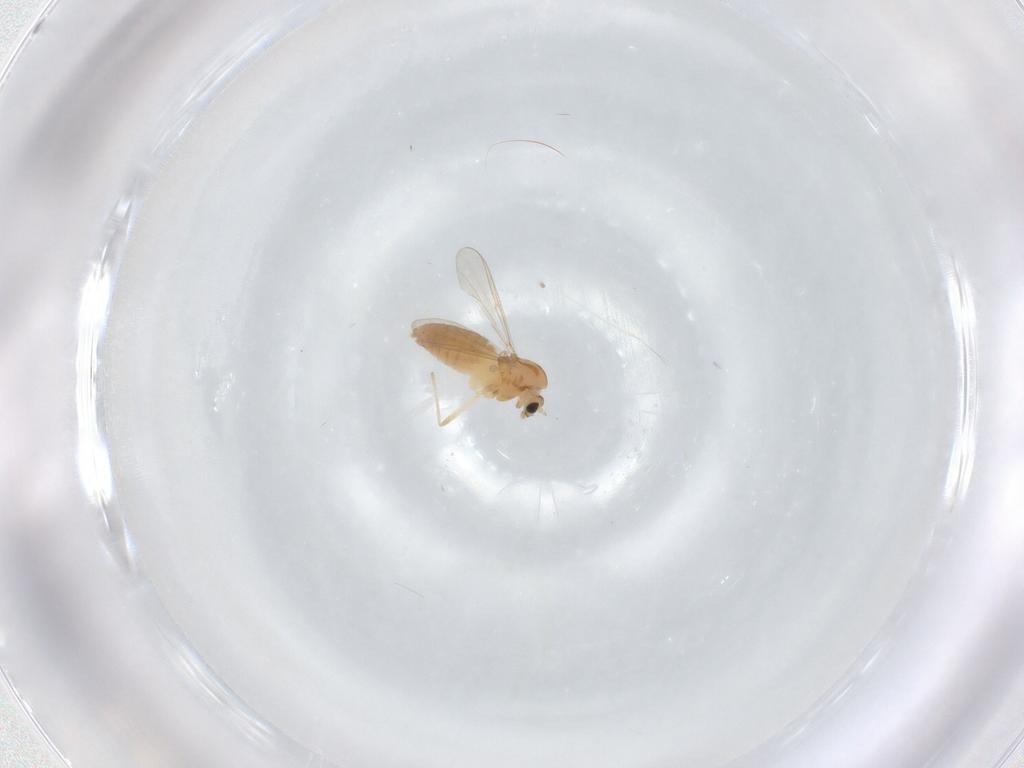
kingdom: Animalia
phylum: Arthropoda
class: Insecta
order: Diptera
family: Chironomidae
